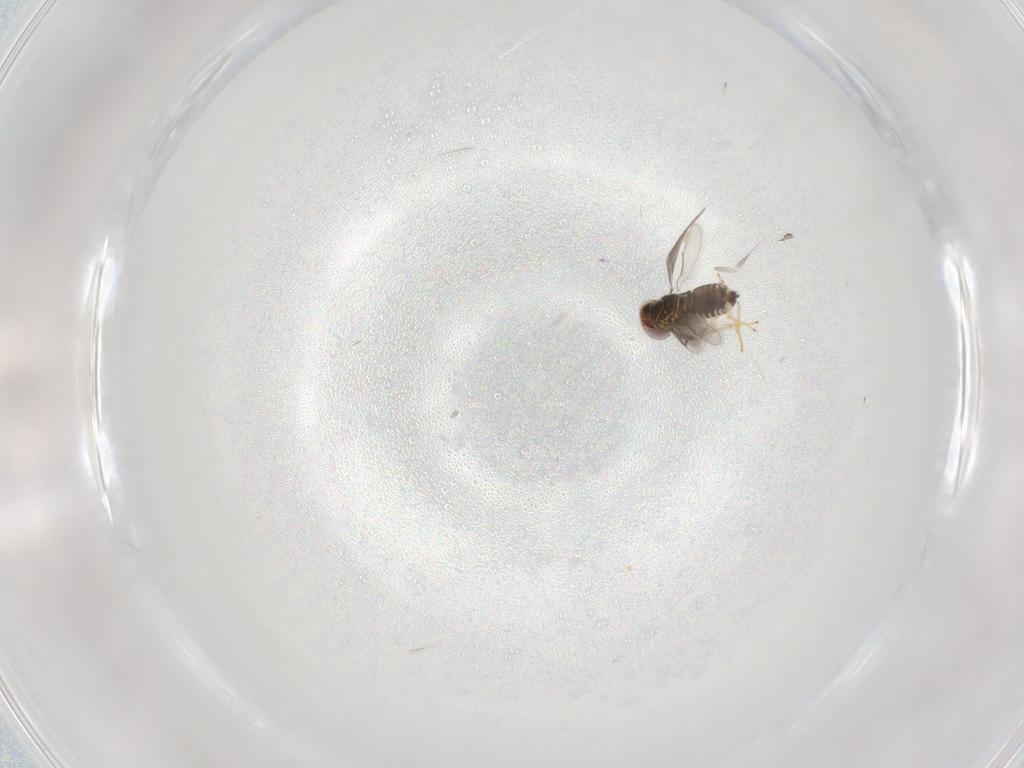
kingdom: Animalia
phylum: Arthropoda
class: Insecta
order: Hymenoptera
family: Aphelinidae
